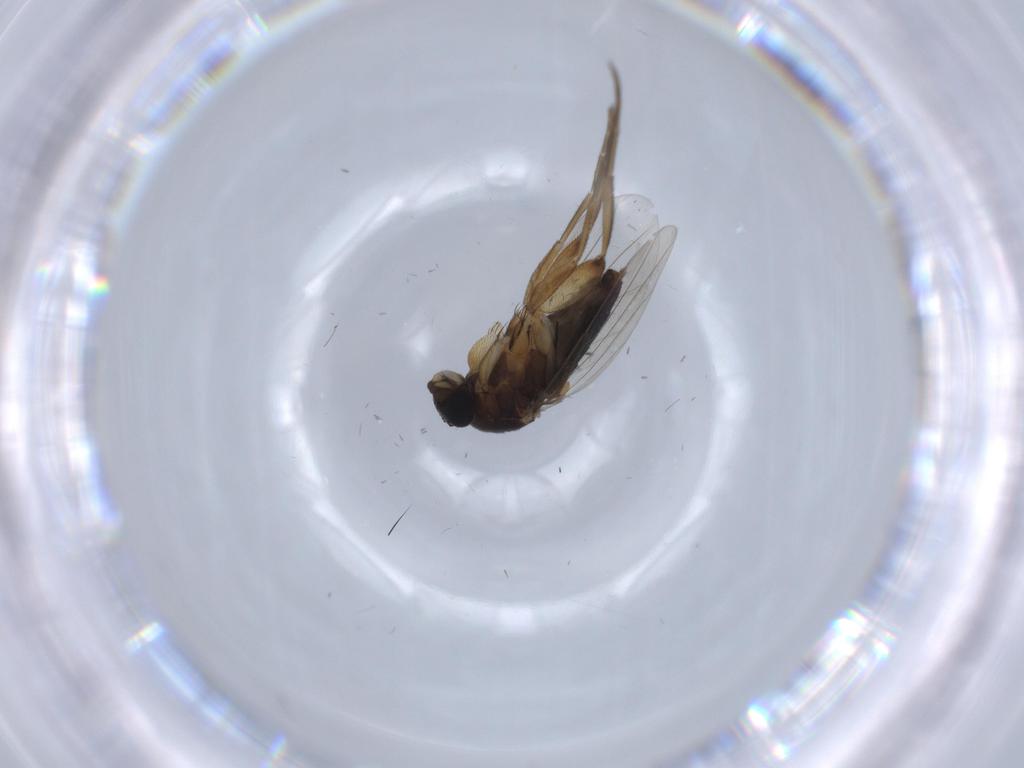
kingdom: Animalia
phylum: Arthropoda
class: Insecta
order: Diptera
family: Phoridae
